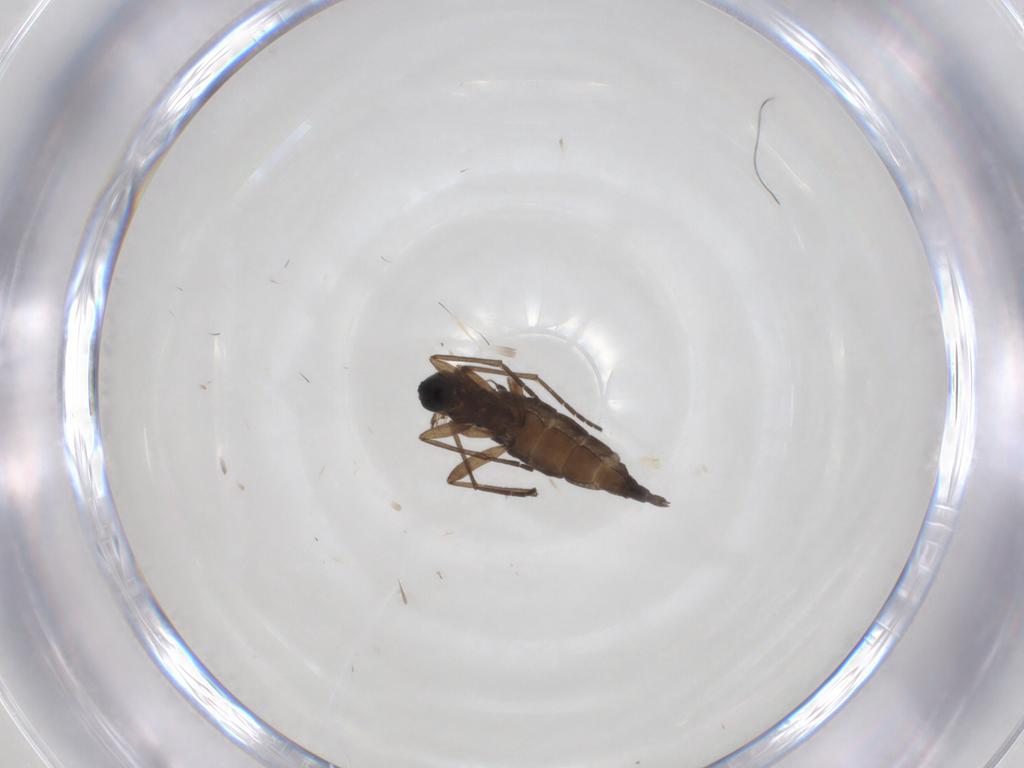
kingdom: Animalia
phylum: Arthropoda
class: Insecta
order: Diptera
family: Sciaridae
